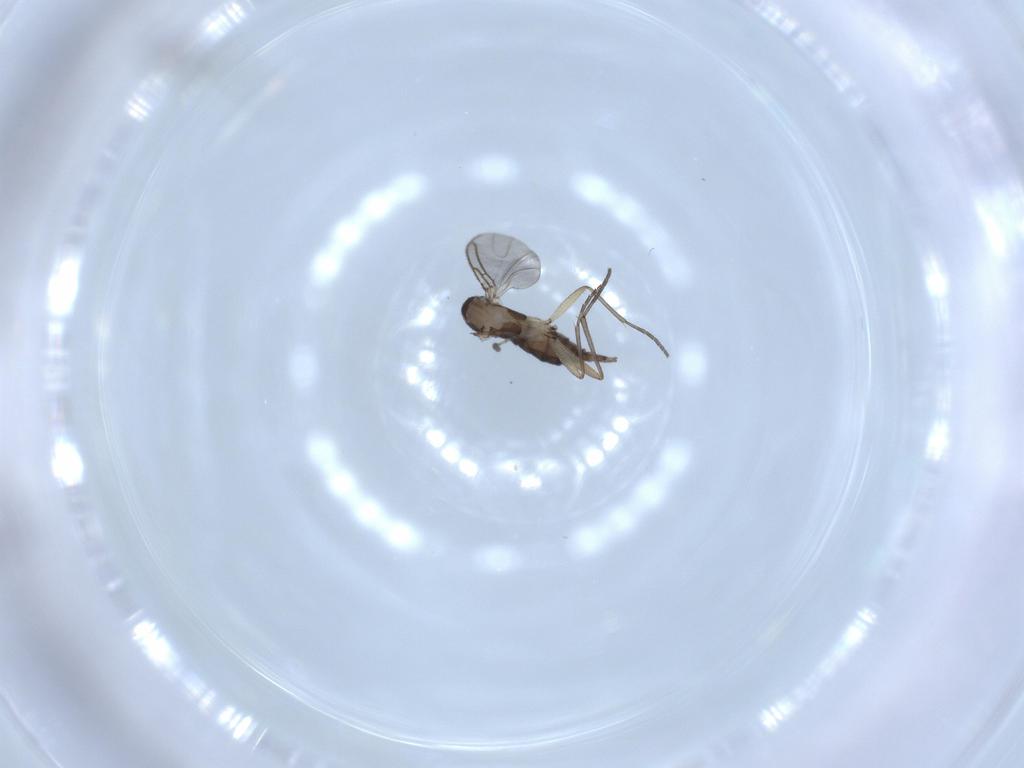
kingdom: Animalia
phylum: Arthropoda
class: Insecta
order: Diptera
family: Sciaridae
